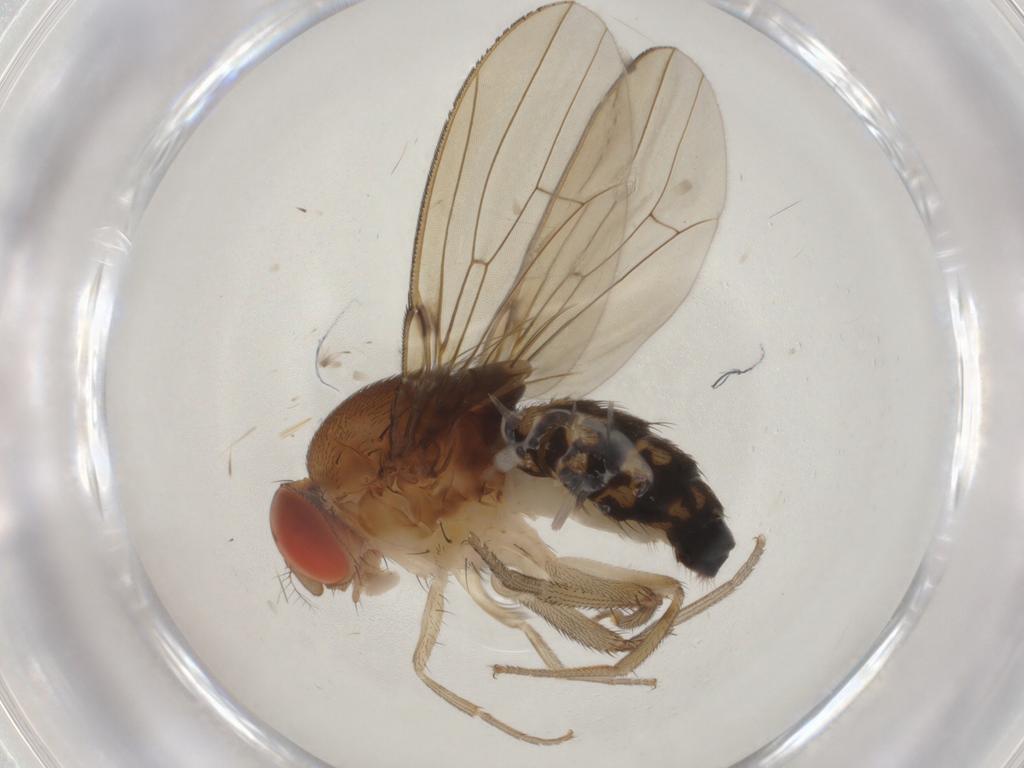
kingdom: Animalia
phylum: Arthropoda
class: Insecta
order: Diptera
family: Drosophilidae
